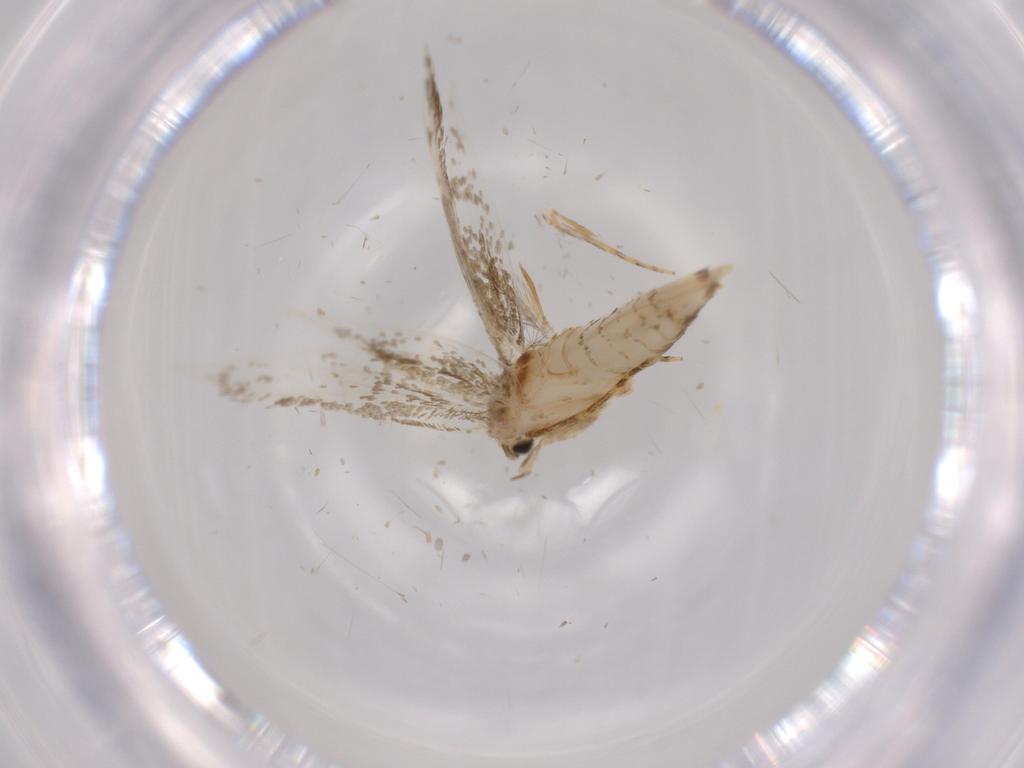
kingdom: Animalia
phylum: Arthropoda
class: Insecta
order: Lepidoptera
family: Tineidae
